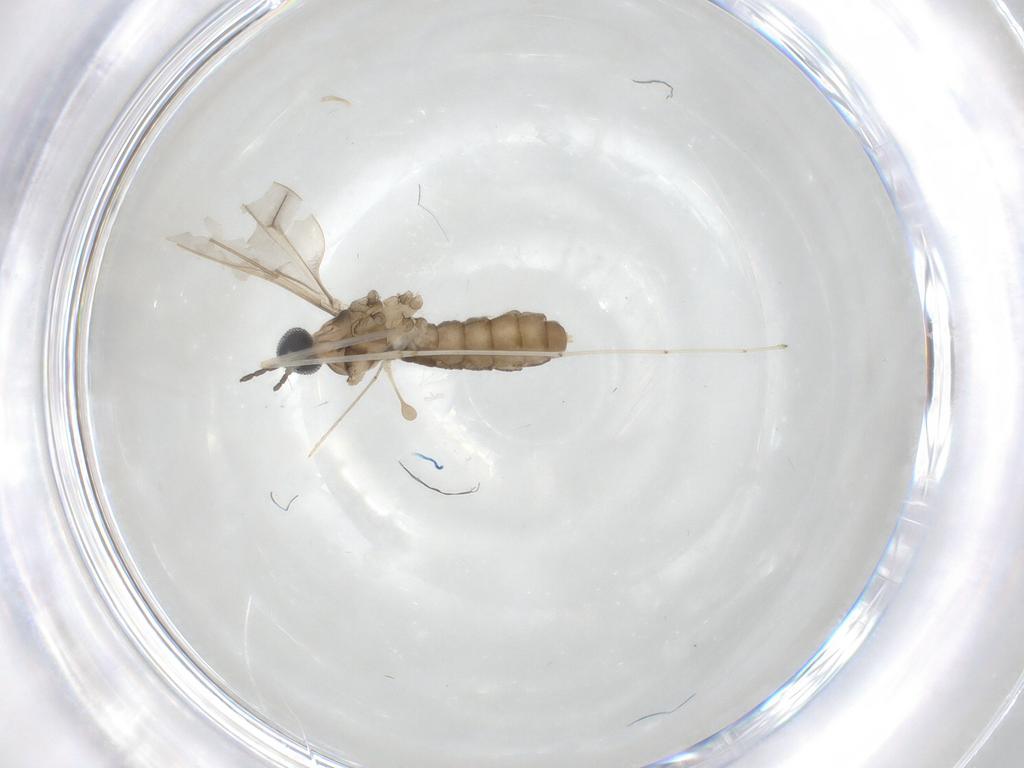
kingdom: Animalia
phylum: Arthropoda
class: Insecta
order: Diptera
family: Cecidomyiidae
